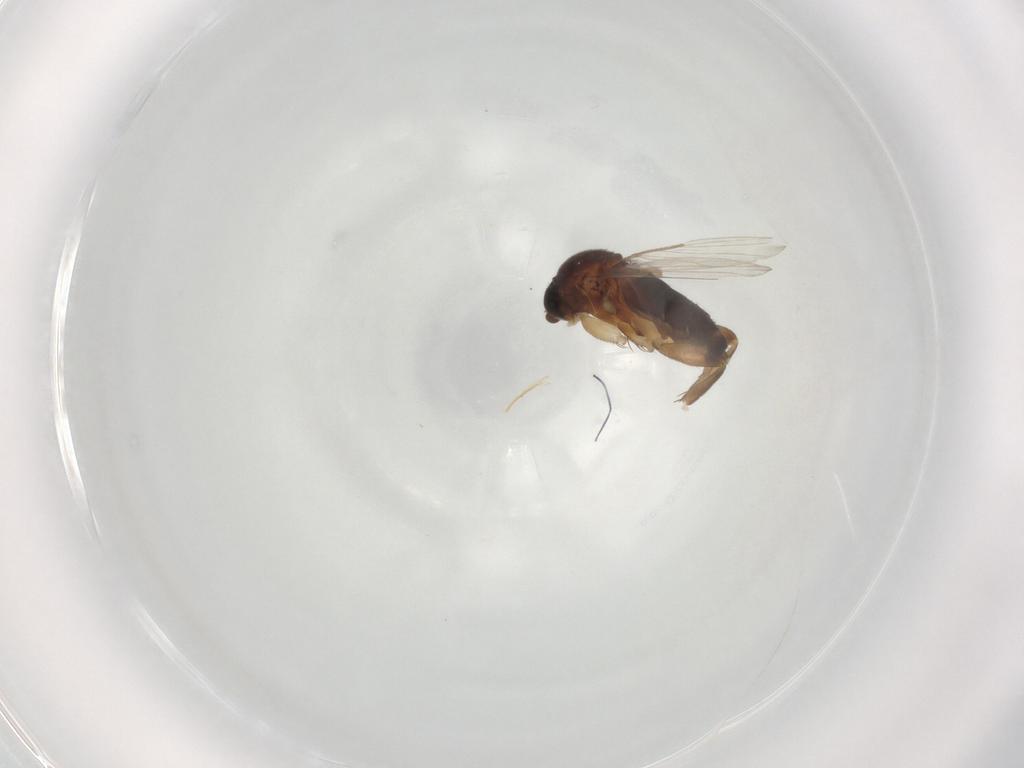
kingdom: Animalia
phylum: Arthropoda
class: Insecta
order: Diptera
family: Phoridae
